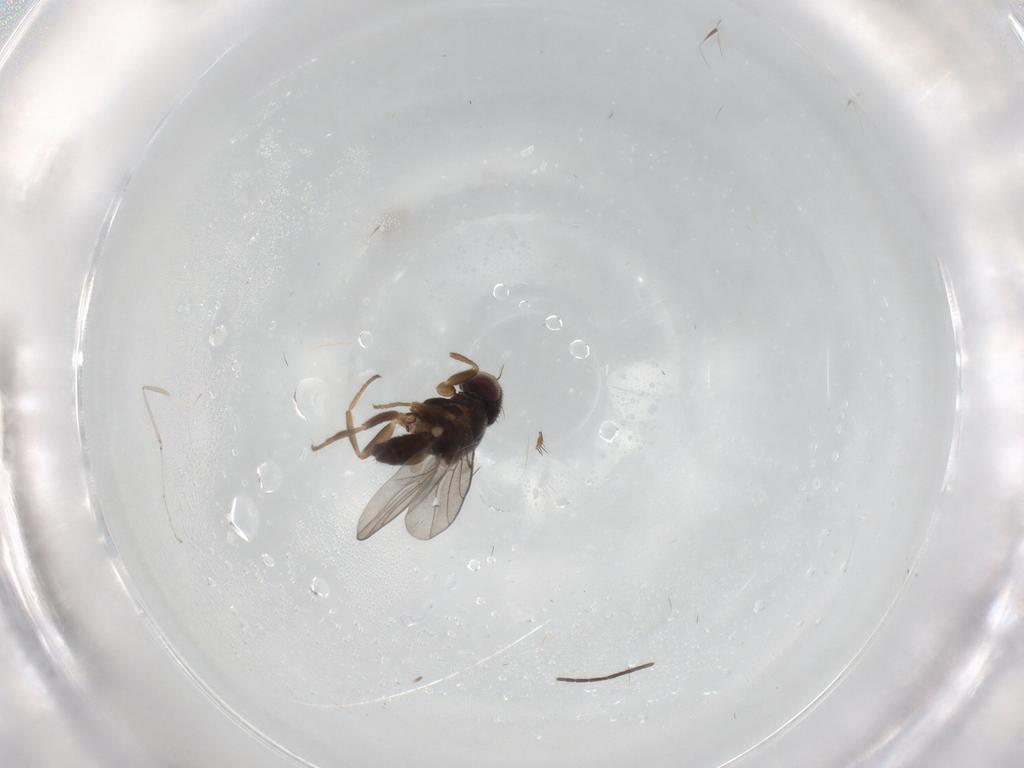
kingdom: Animalia
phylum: Arthropoda
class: Insecta
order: Diptera
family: Chloropidae
